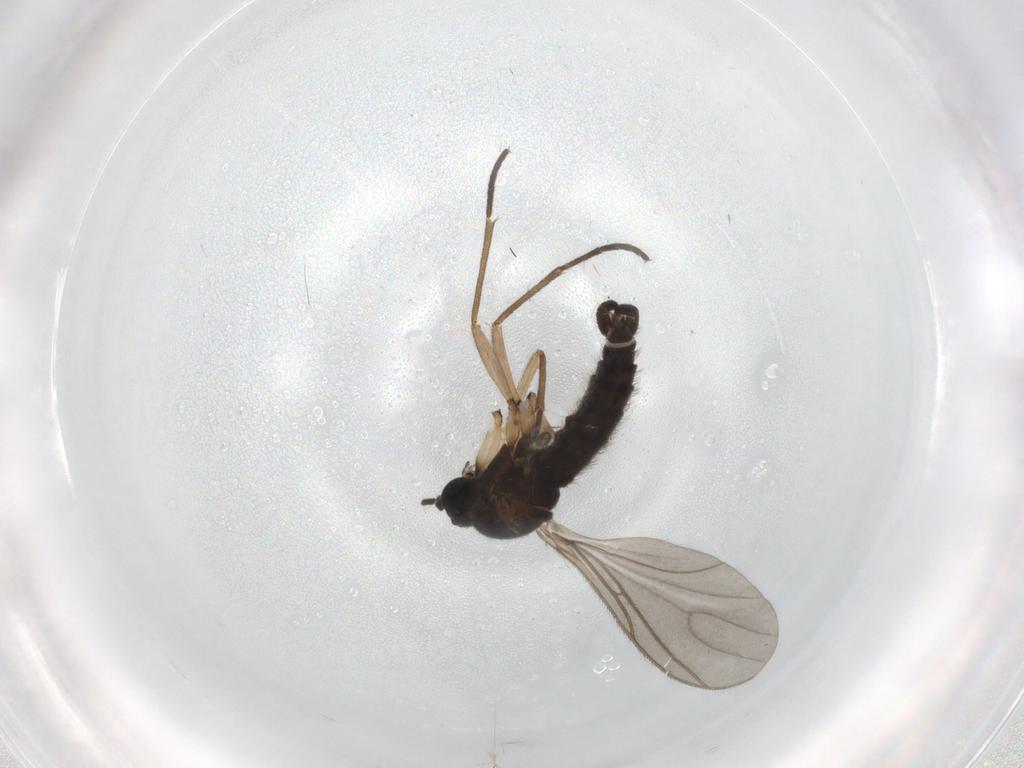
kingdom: Animalia
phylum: Arthropoda
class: Insecta
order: Diptera
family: Sciaridae
